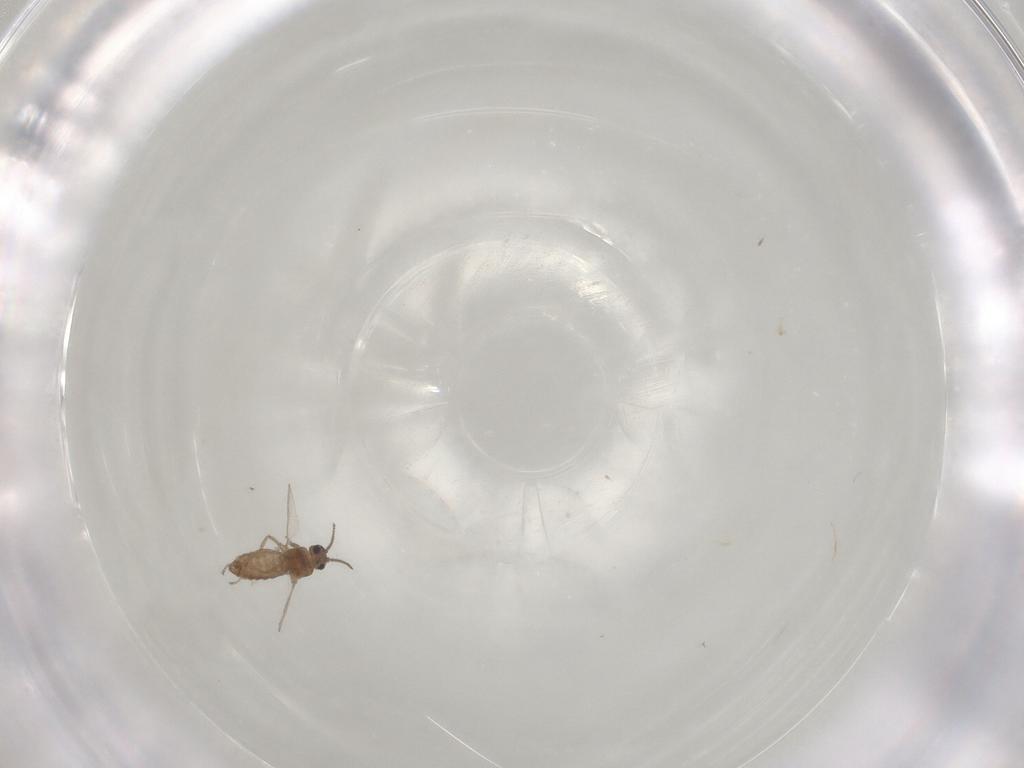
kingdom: Animalia
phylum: Arthropoda
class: Insecta
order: Diptera
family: Ceratopogonidae
